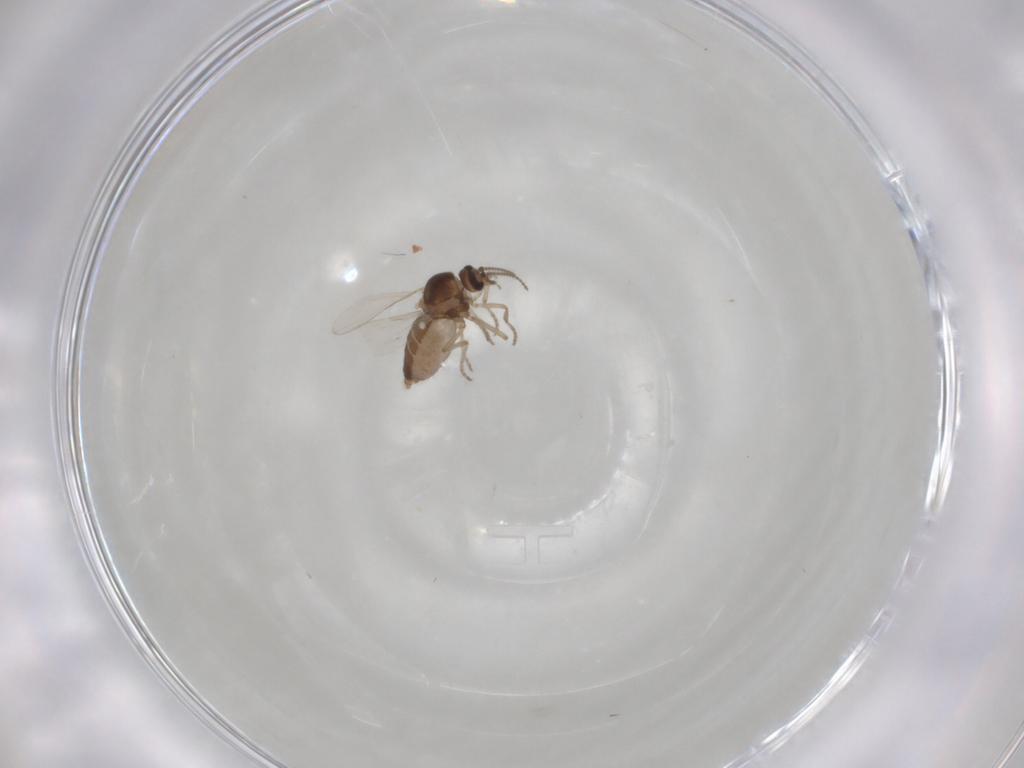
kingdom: Animalia
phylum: Arthropoda
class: Insecta
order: Diptera
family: Ceratopogonidae
